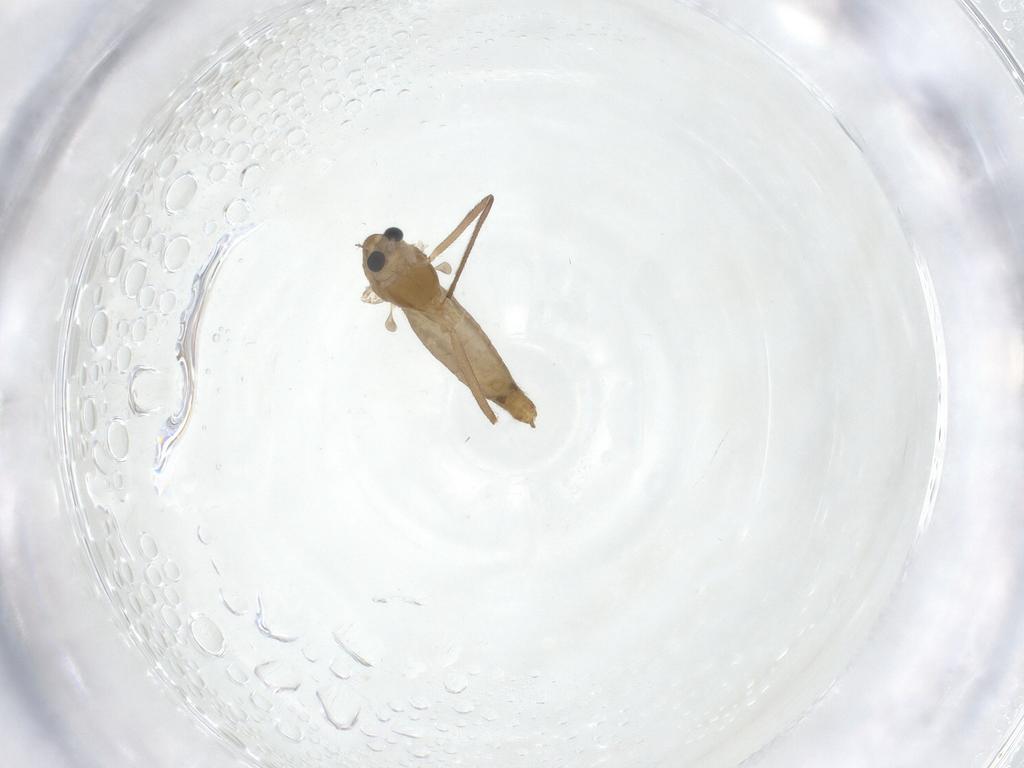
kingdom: Animalia
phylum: Arthropoda
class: Insecta
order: Diptera
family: Chironomidae
